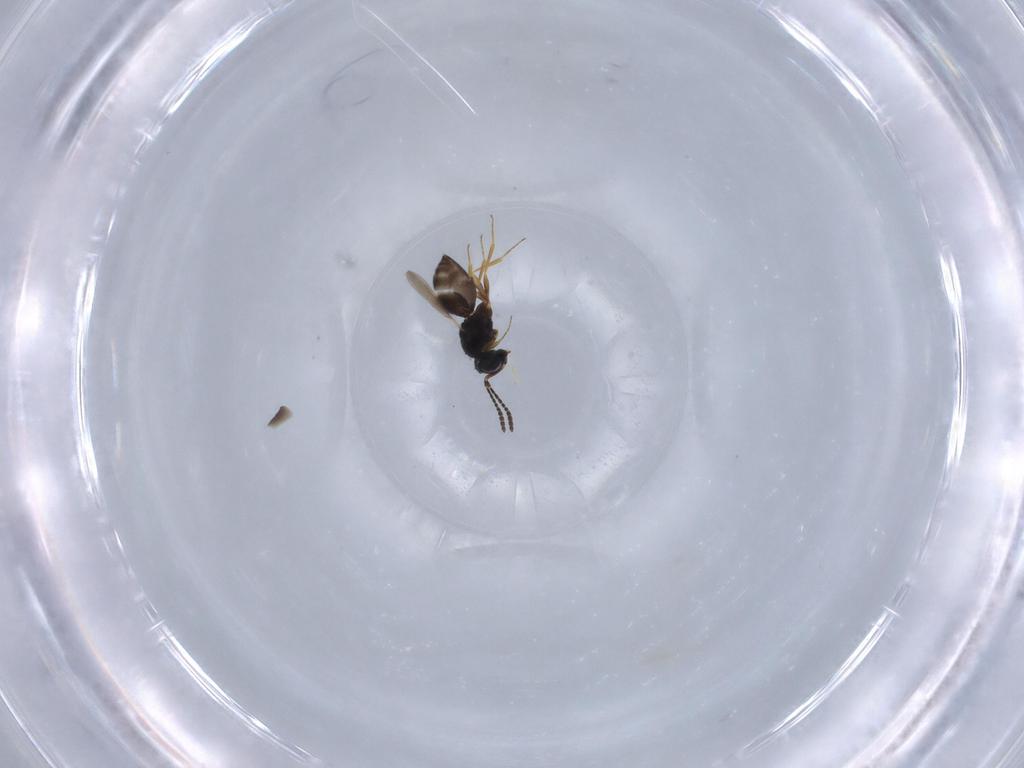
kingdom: Animalia
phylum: Arthropoda
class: Insecta
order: Hymenoptera
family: Scelionidae
